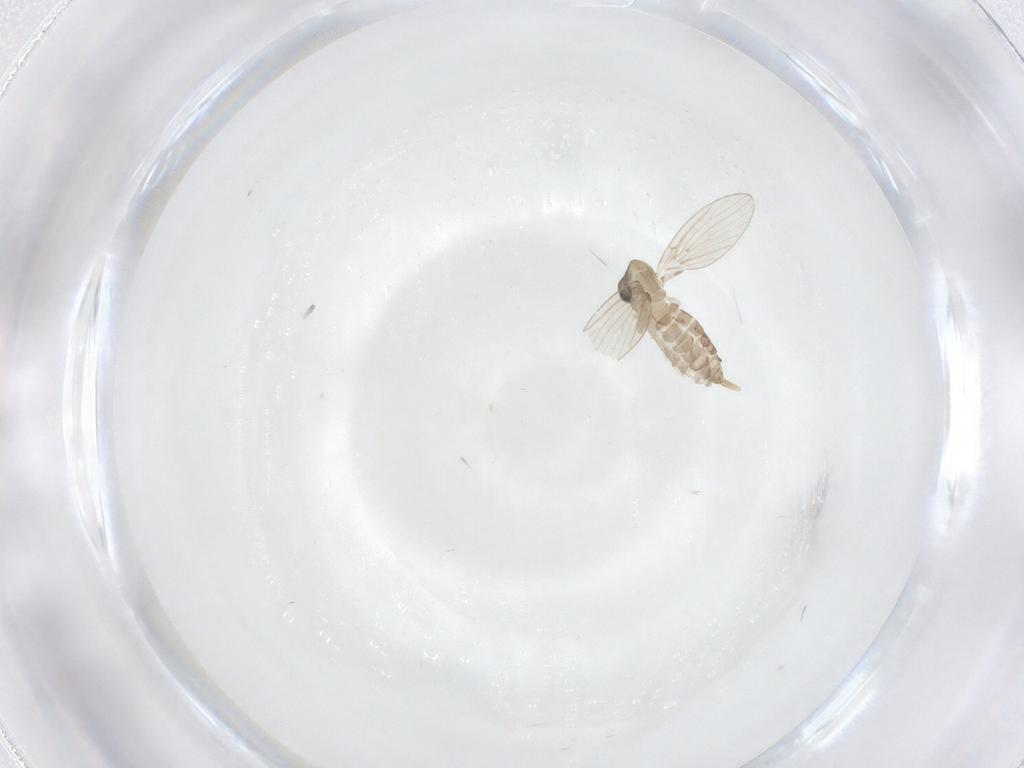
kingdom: Animalia
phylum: Arthropoda
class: Insecta
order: Diptera
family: Psychodidae
